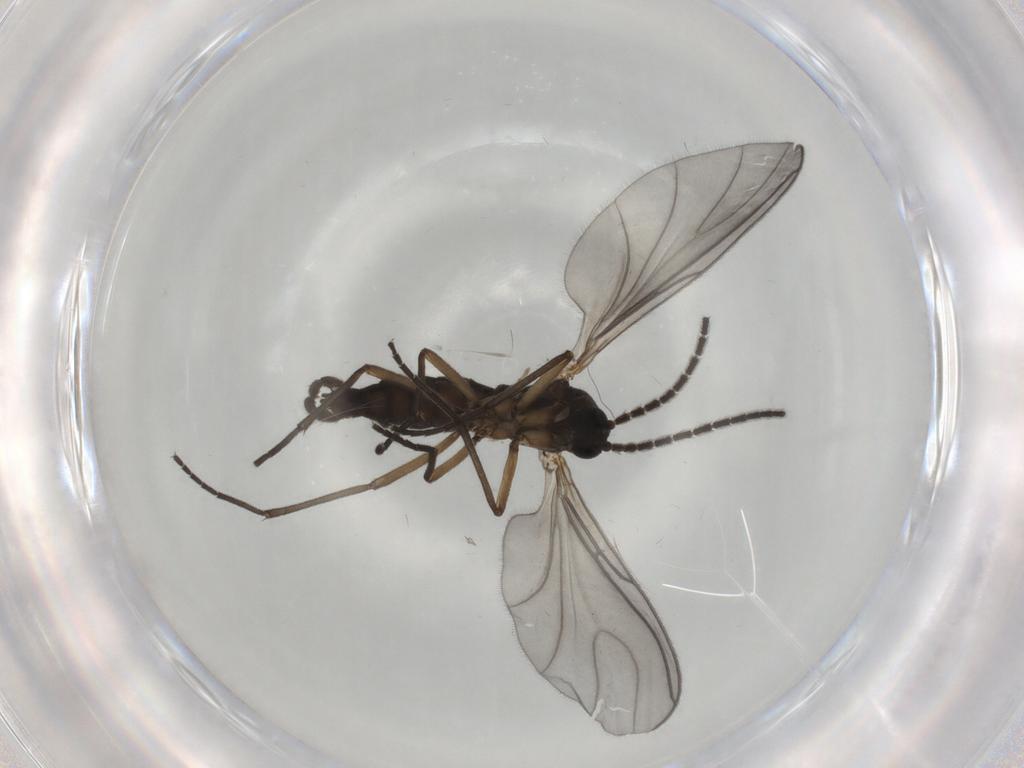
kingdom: Animalia
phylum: Arthropoda
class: Insecta
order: Diptera
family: Sciaridae
